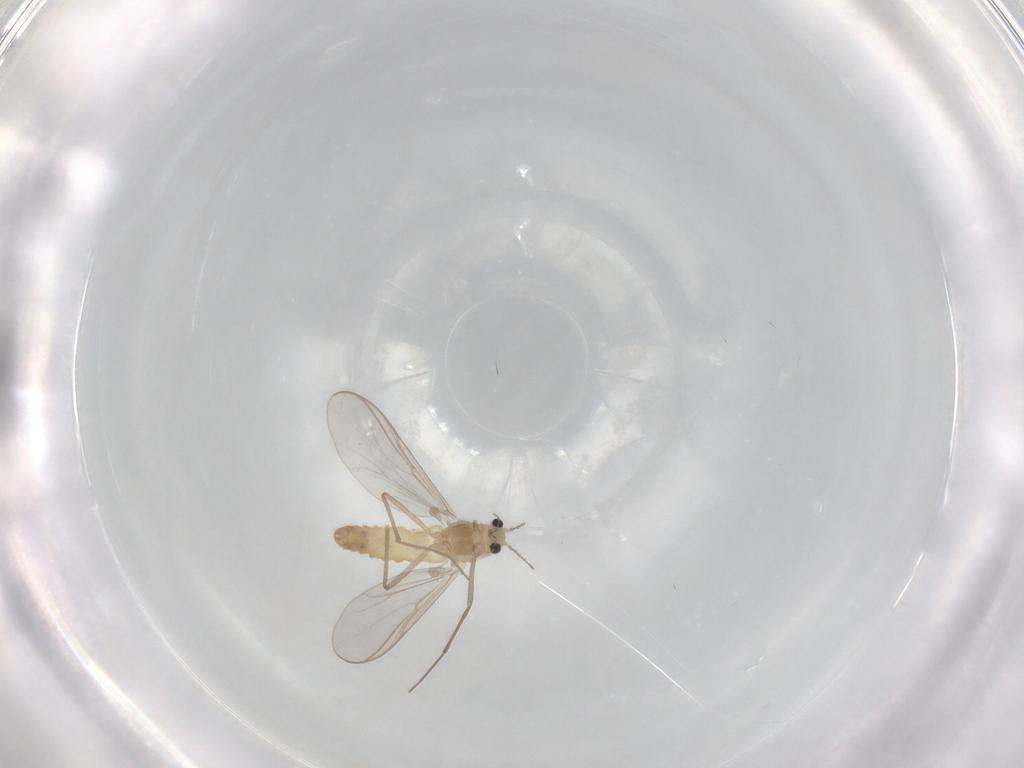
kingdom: Animalia
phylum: Arthropoda
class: Insecta
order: Diptera
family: Chironomidae
